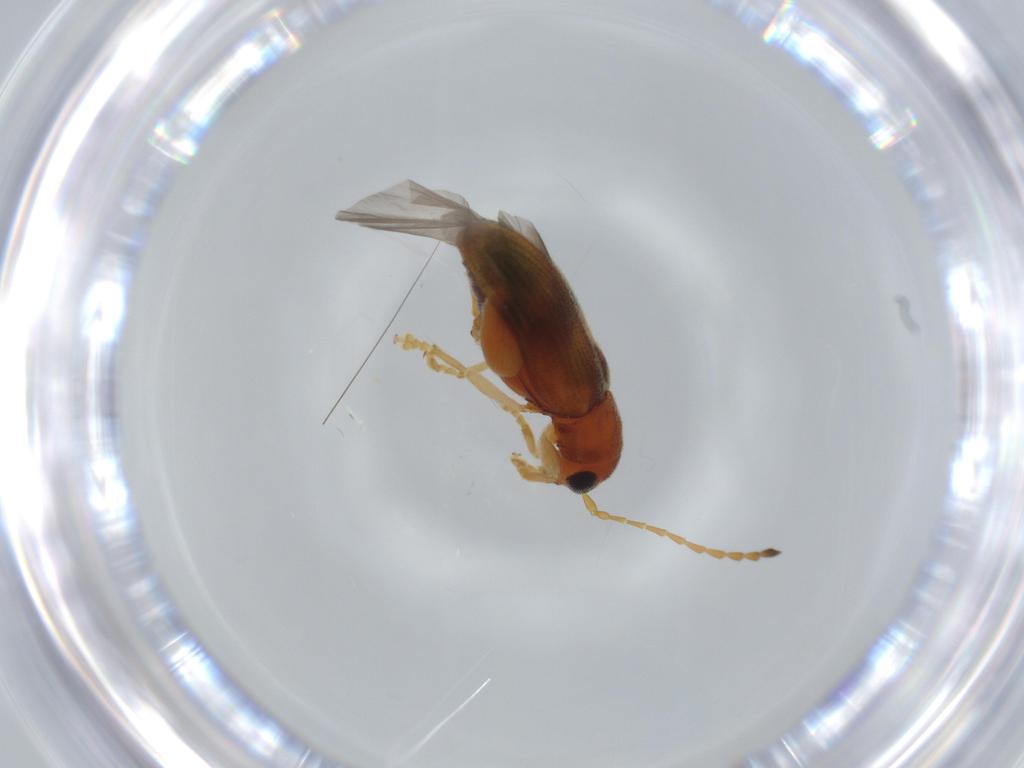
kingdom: Animalia
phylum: Arthropoda
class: Insecta
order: Coleoptera
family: Chrysomelidae
